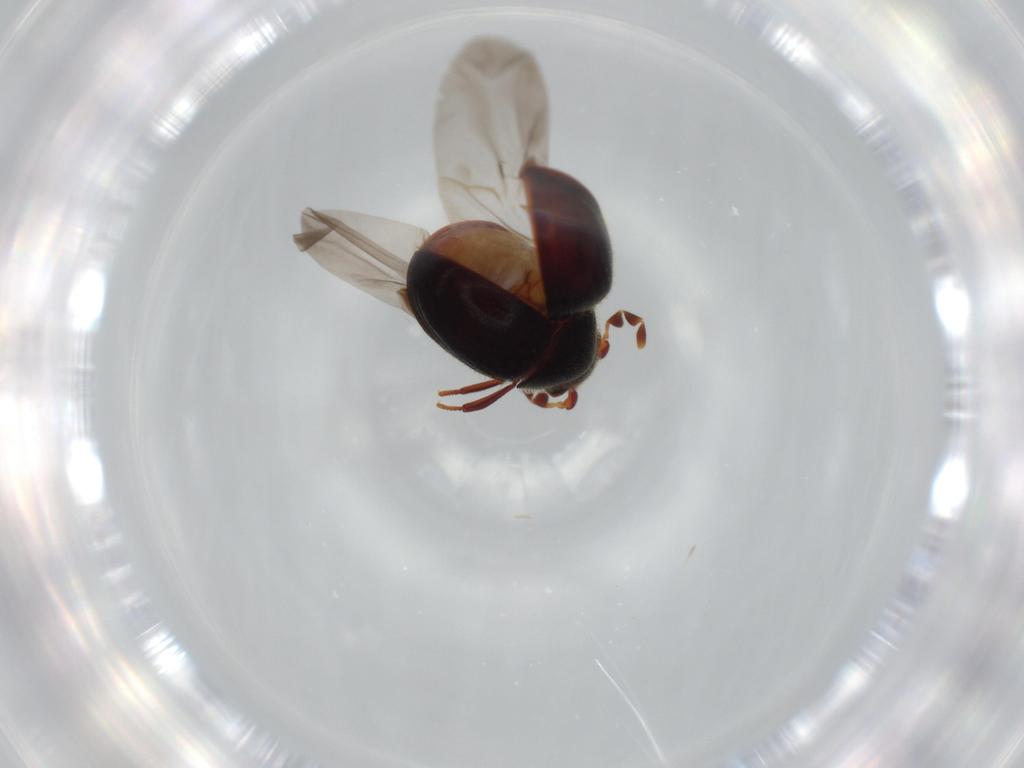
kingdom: Animalia
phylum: Arthropoda
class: Insecta
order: Coleoptera
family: Ptinidae
